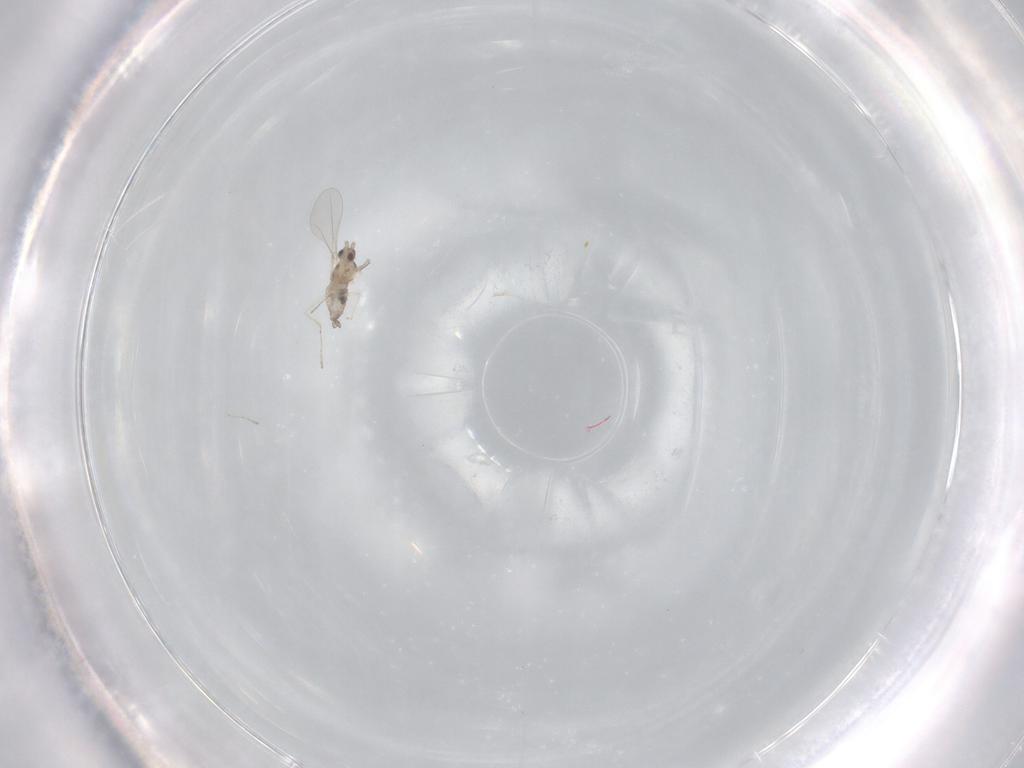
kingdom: Animalia
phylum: Arthropoda
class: Insecta
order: Diptera
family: Cecidomyiidae
